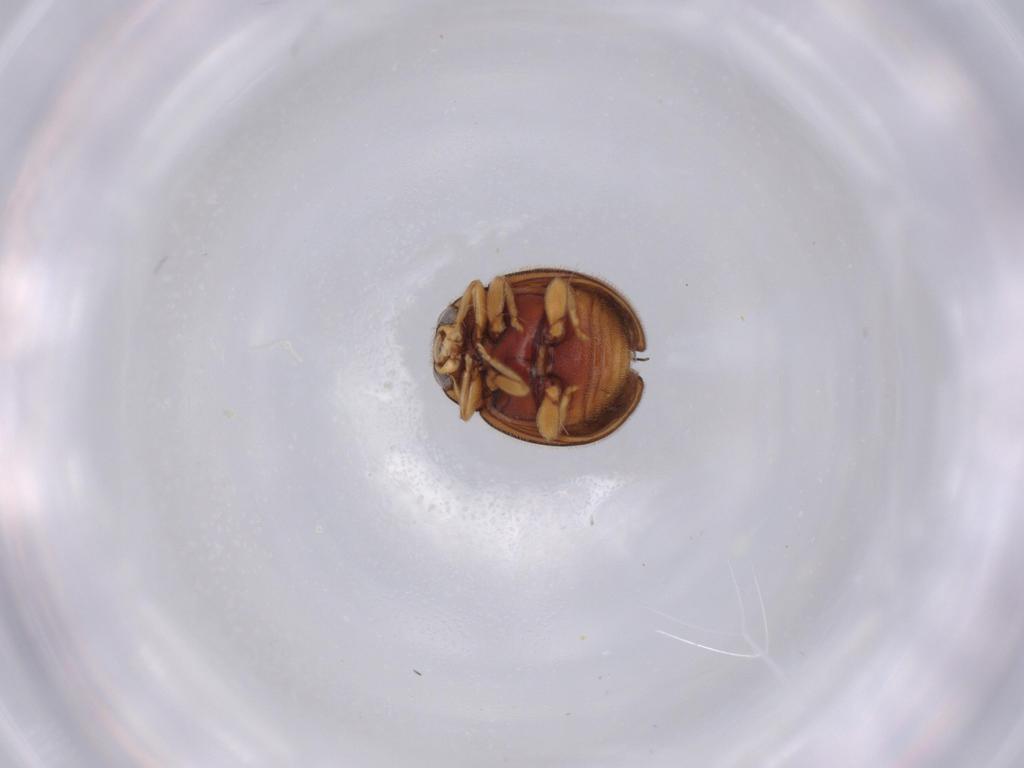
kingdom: Animalia
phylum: Arthropoda
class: Insecta
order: Coleoptera
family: Coccinellidae
